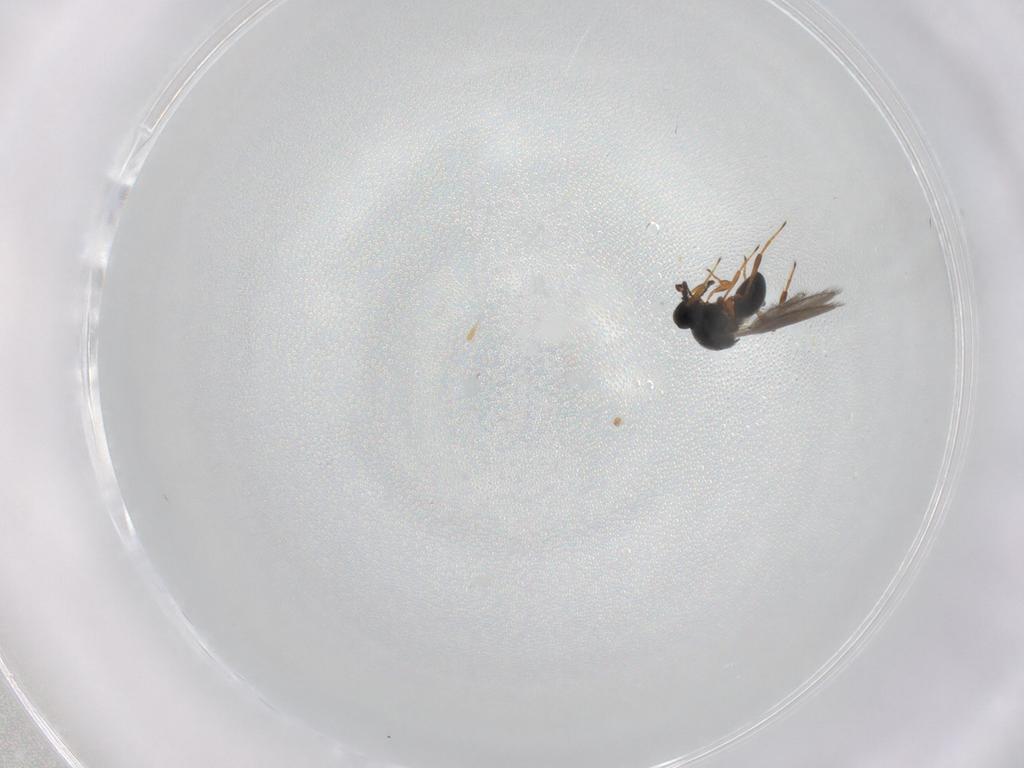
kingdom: Animalia
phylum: Arthropoda
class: Insecta
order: Hymenoptera
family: Platygastridae
